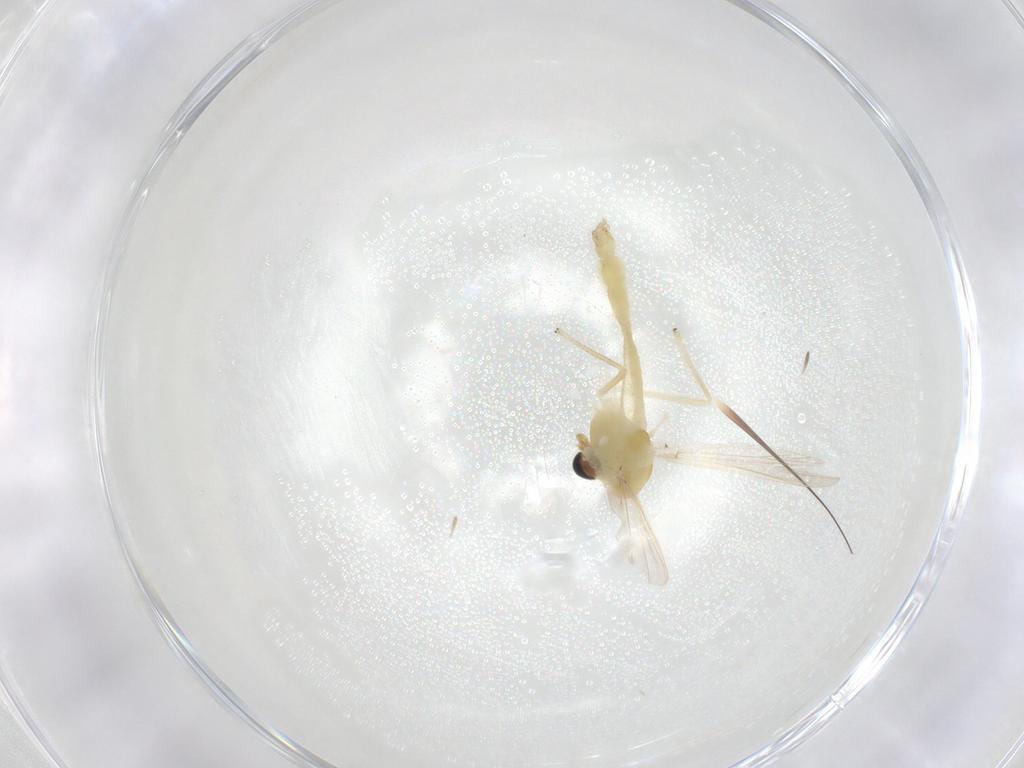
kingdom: Animalia
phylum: Arthropoda
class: Insecta
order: Diptera
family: Chironomidae
